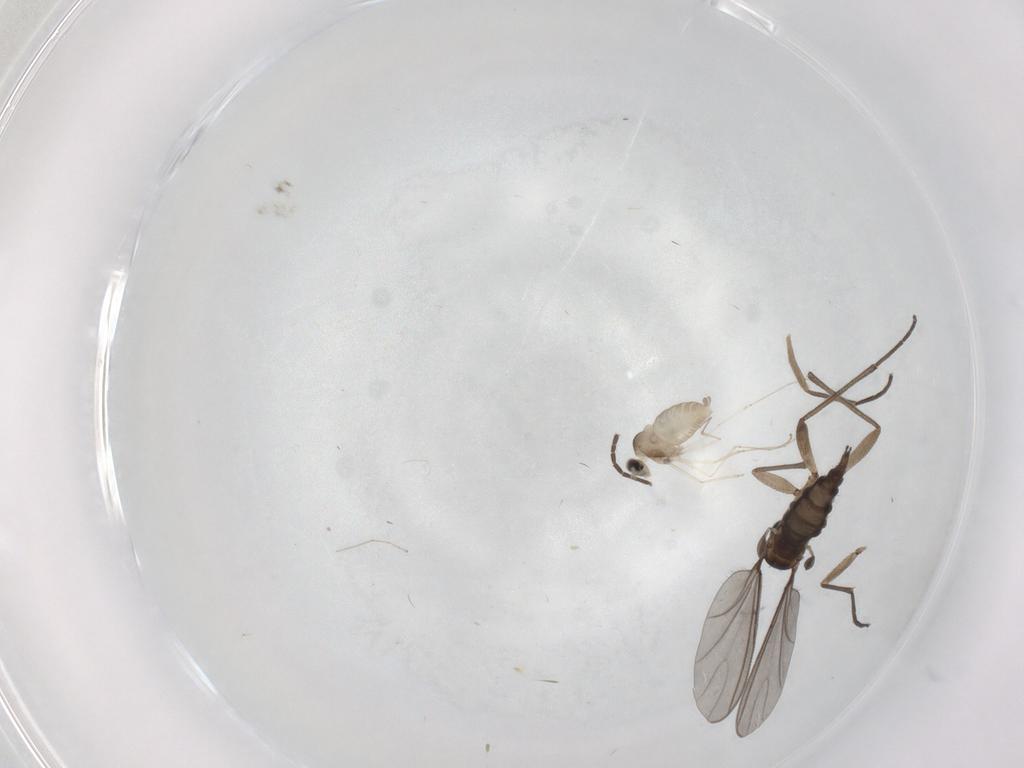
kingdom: Animalia
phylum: Arthropoda
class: Insecta
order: Diptera
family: Sciaridae
